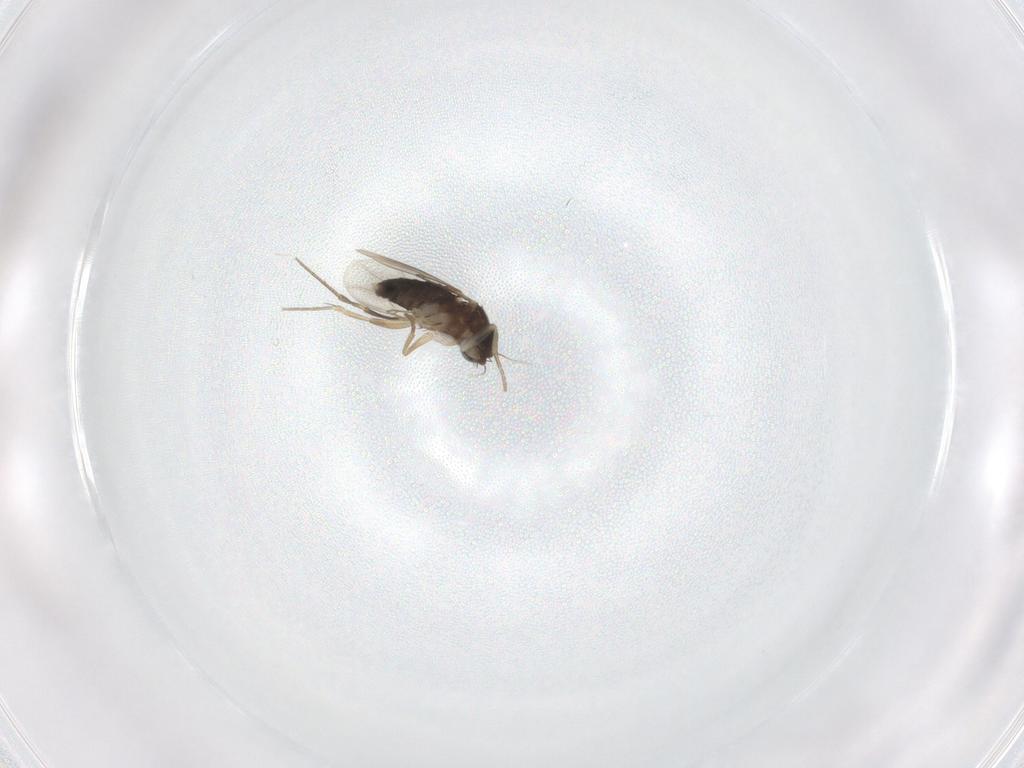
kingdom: Animalia
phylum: Arthropoda
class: Insecta
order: Diptera
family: Phoridae
